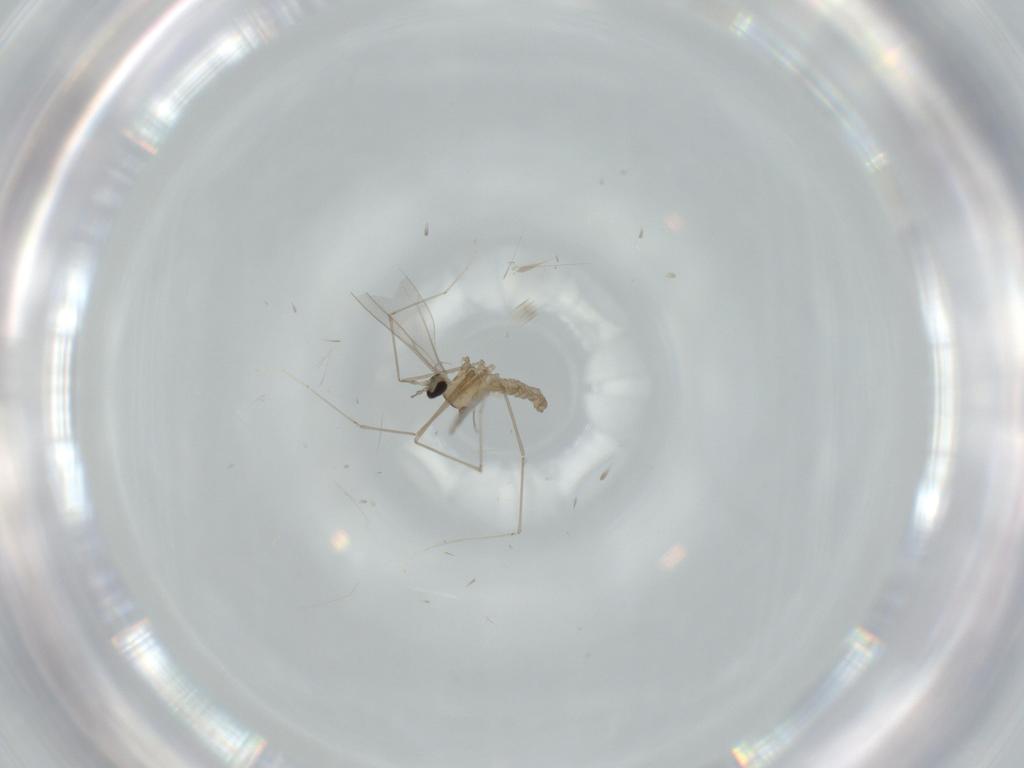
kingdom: Animalia
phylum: Arthropoda
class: Insecta
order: Diptera
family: Cecidomyiidae
